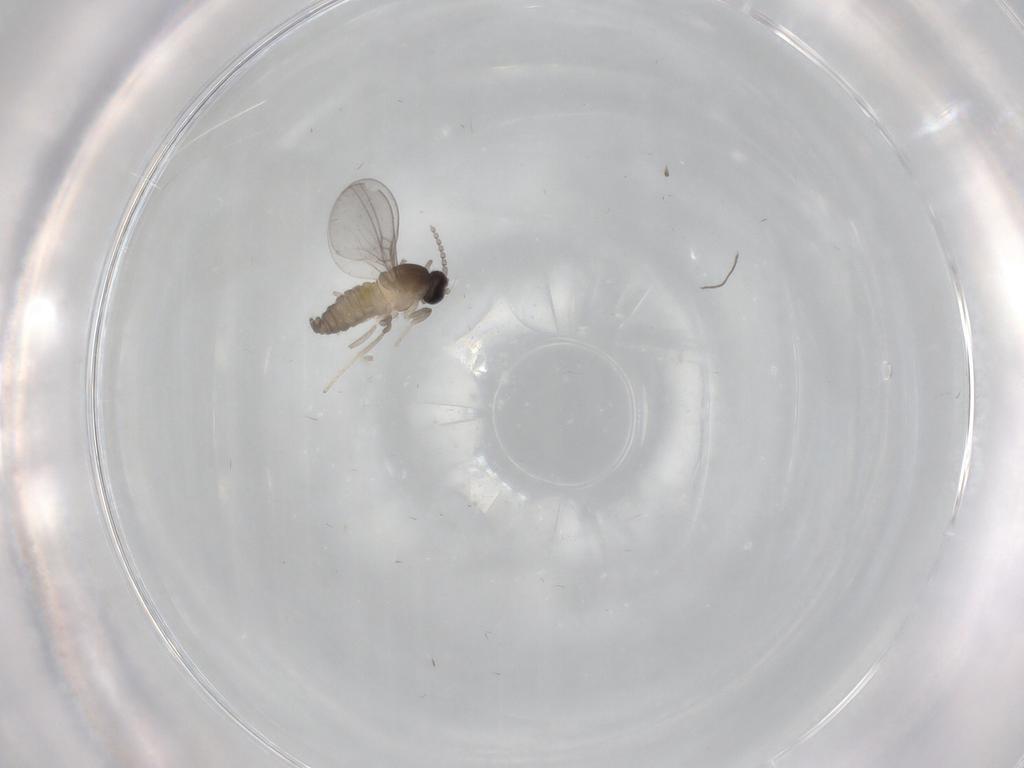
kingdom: Animalia
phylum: Arthropoda
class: Insecta
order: Diptera
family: Cecidomyiidae
